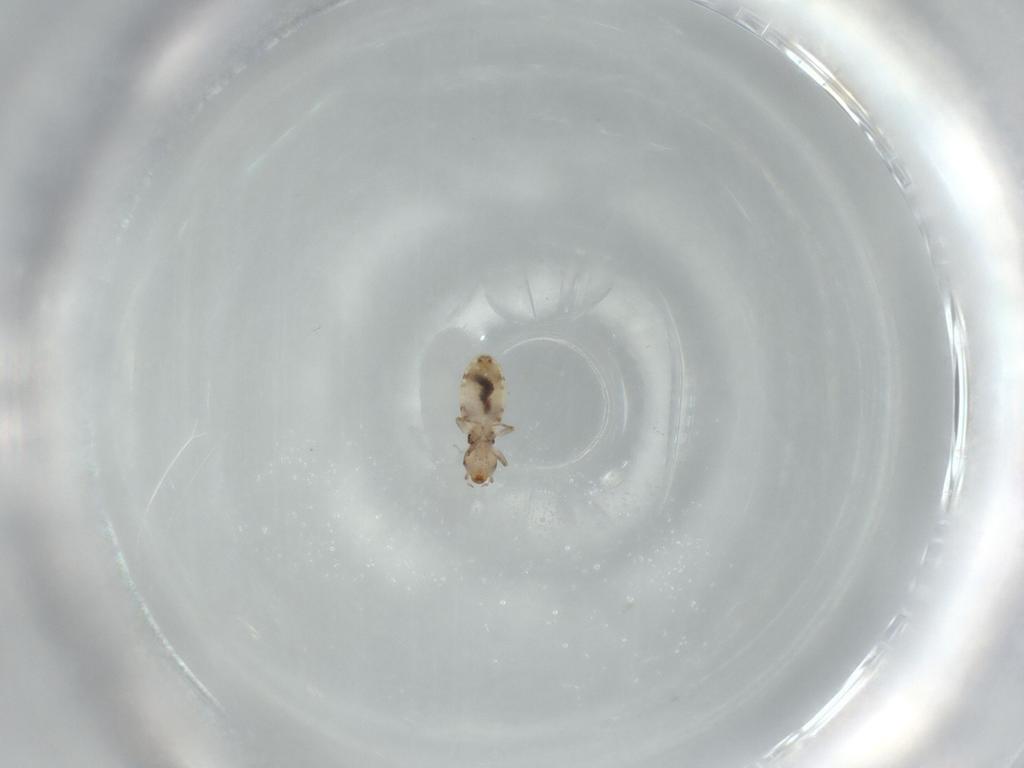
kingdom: Animalia
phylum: Arthropoda
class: Insecta
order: Psocodea
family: Liposcelididae
